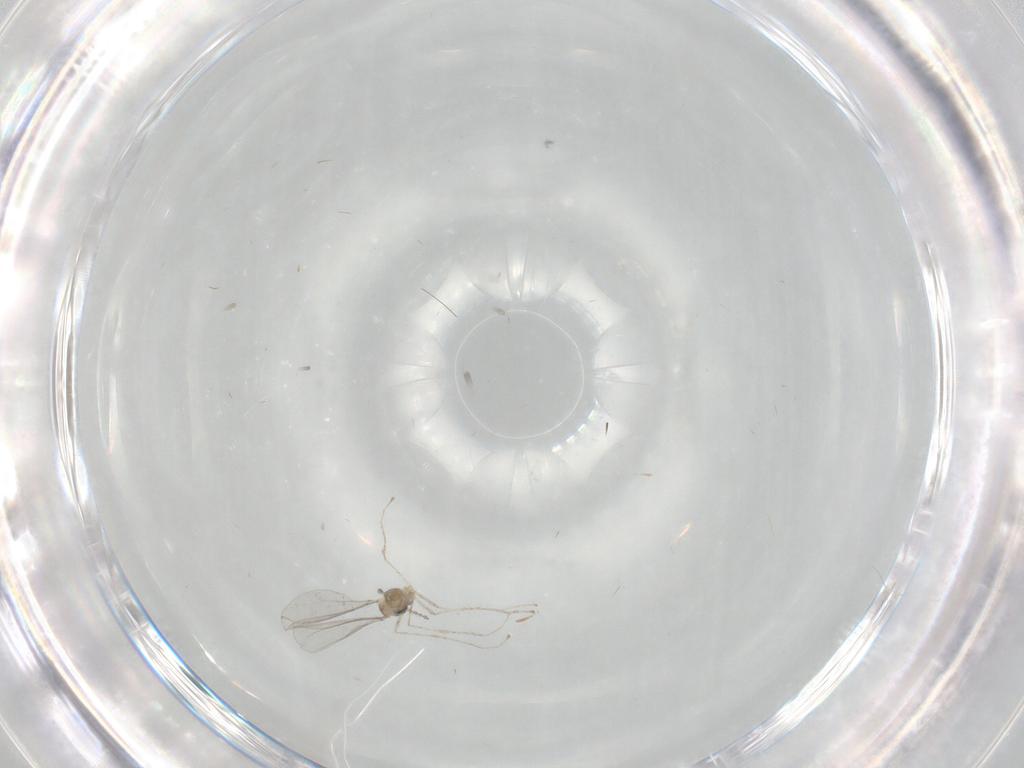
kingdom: Animalia
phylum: Arthropoda
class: Insecta
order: Diptera
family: Cecidomyiidae
